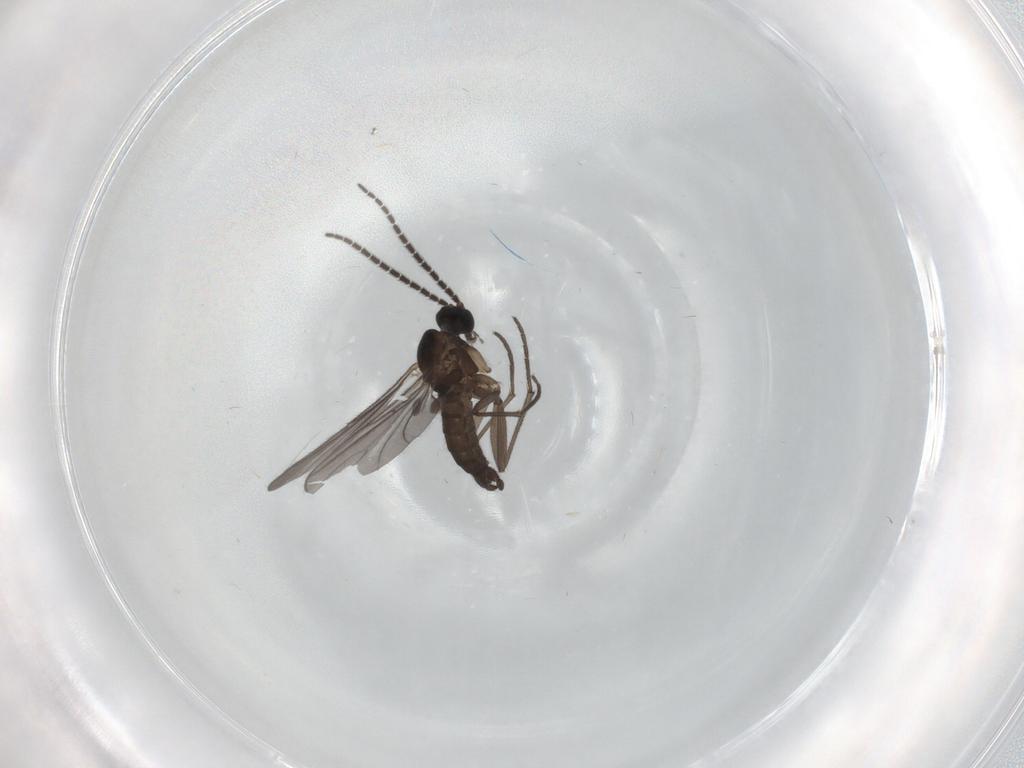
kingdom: Animalia
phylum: Arthropoda
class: Insecta
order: Diptera
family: Sciaridae
